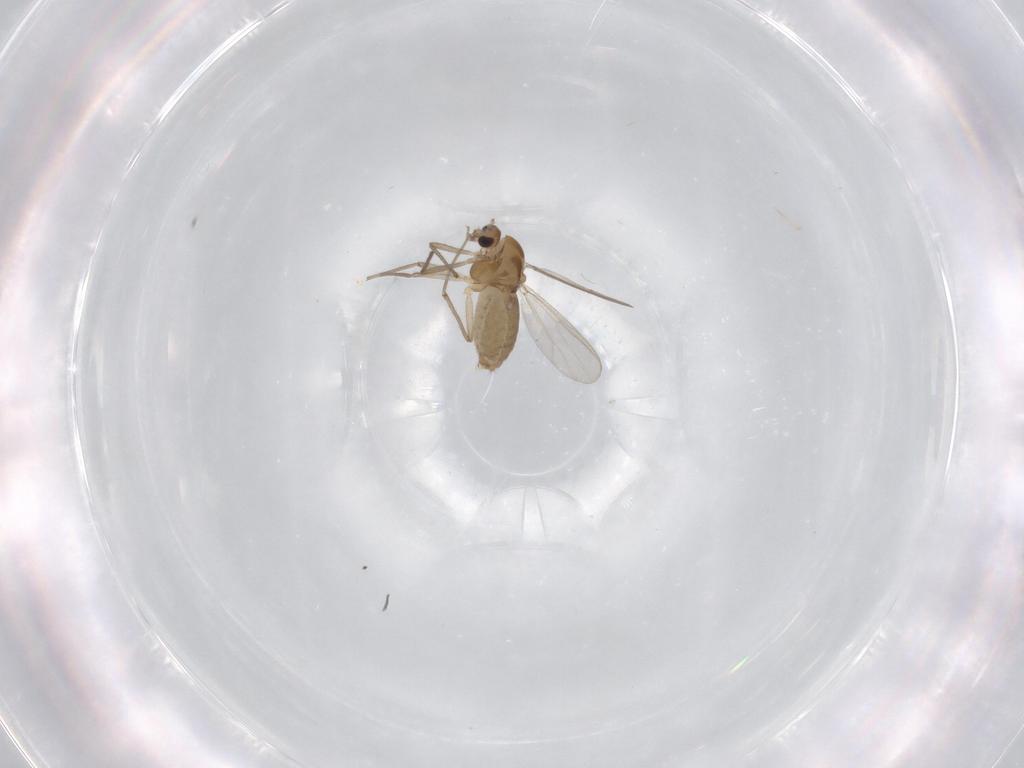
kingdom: Animalia
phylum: Arthropoda
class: Insecta
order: Diptera
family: Chironomidae
